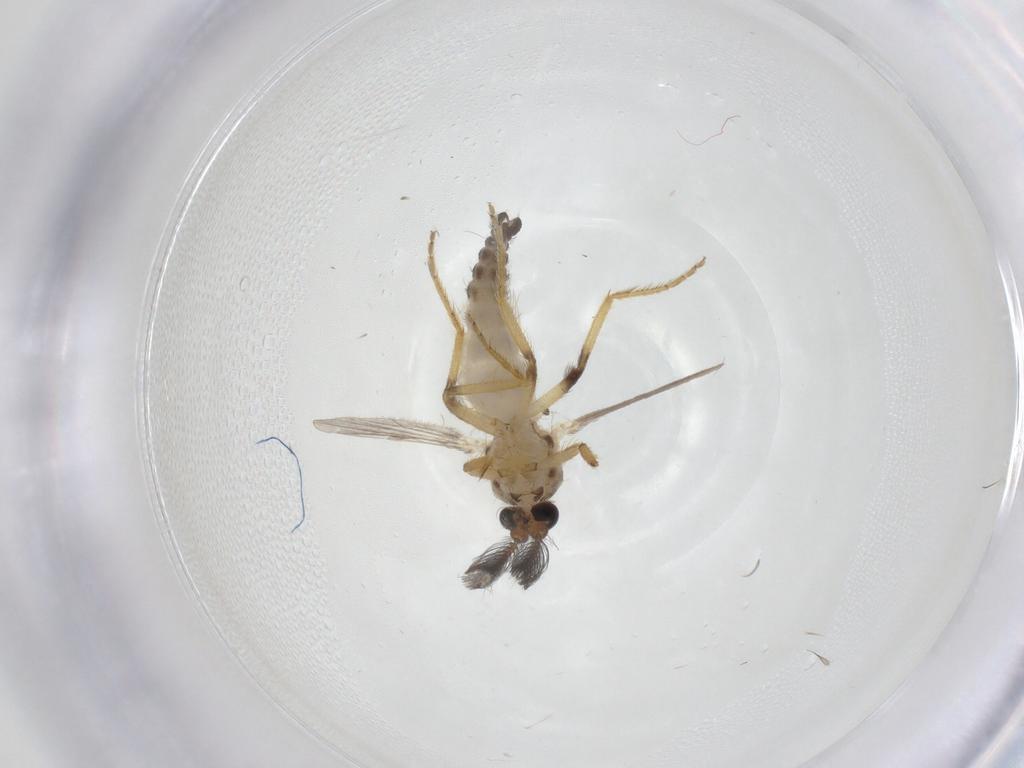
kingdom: Animalia
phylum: Arthropoda
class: Insecta
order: Diptera
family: Ceratopogonidae
